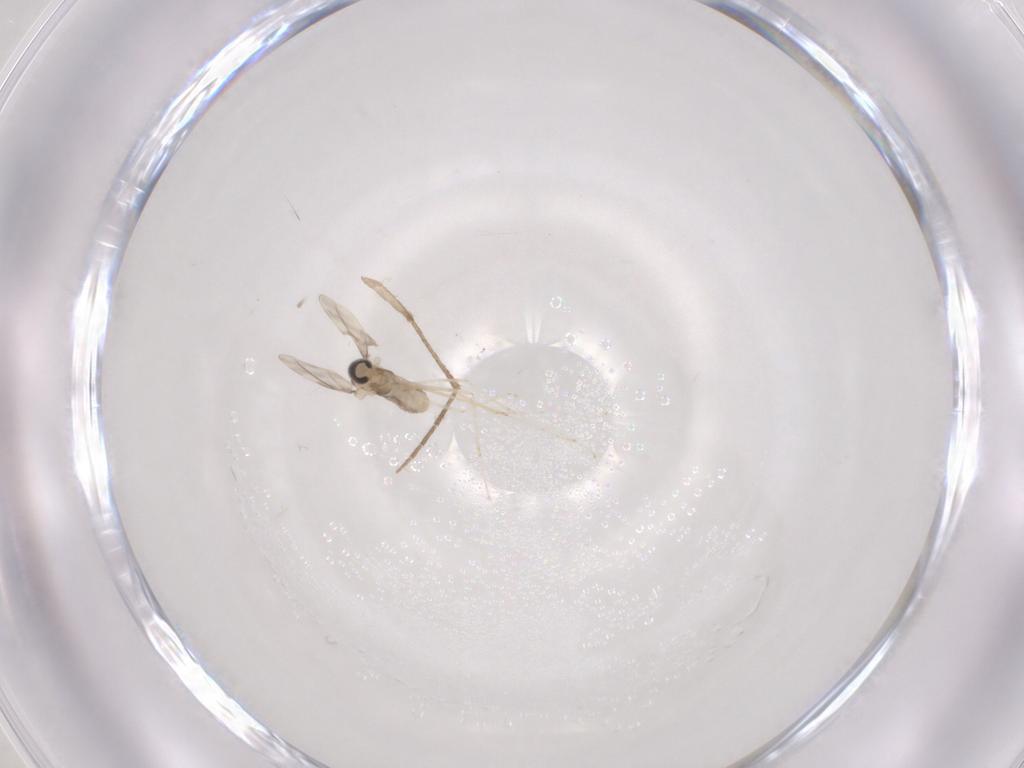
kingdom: Animalia
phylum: Arthropoda
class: Insecta
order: Diptera
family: Psychodidae
